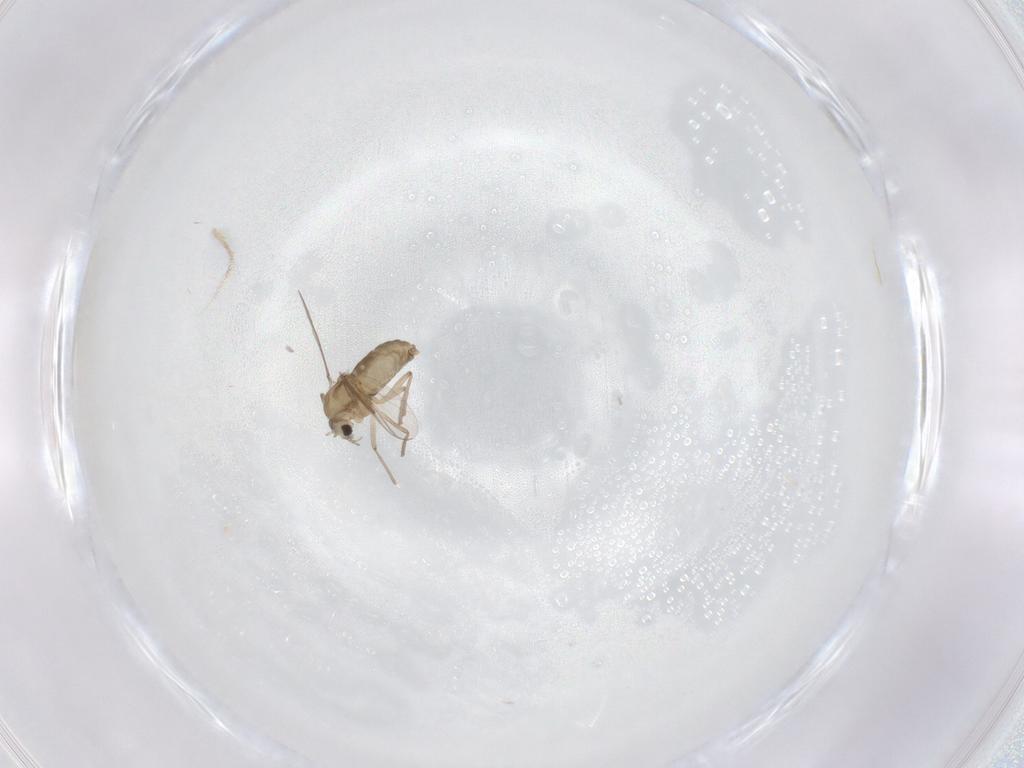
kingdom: Animalia
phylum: Arthropoda
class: Insecta
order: Diptera
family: Chironomidae
